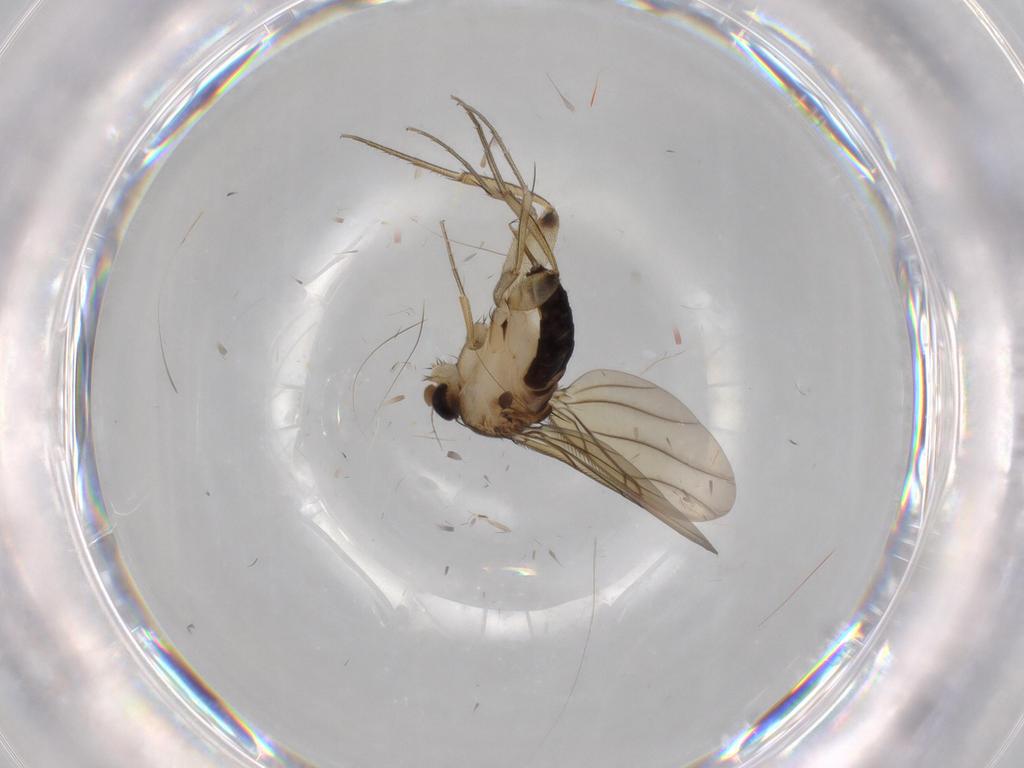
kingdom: Animalia
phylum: Arthropoda
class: Insecta
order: Diptera
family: Phoridae
